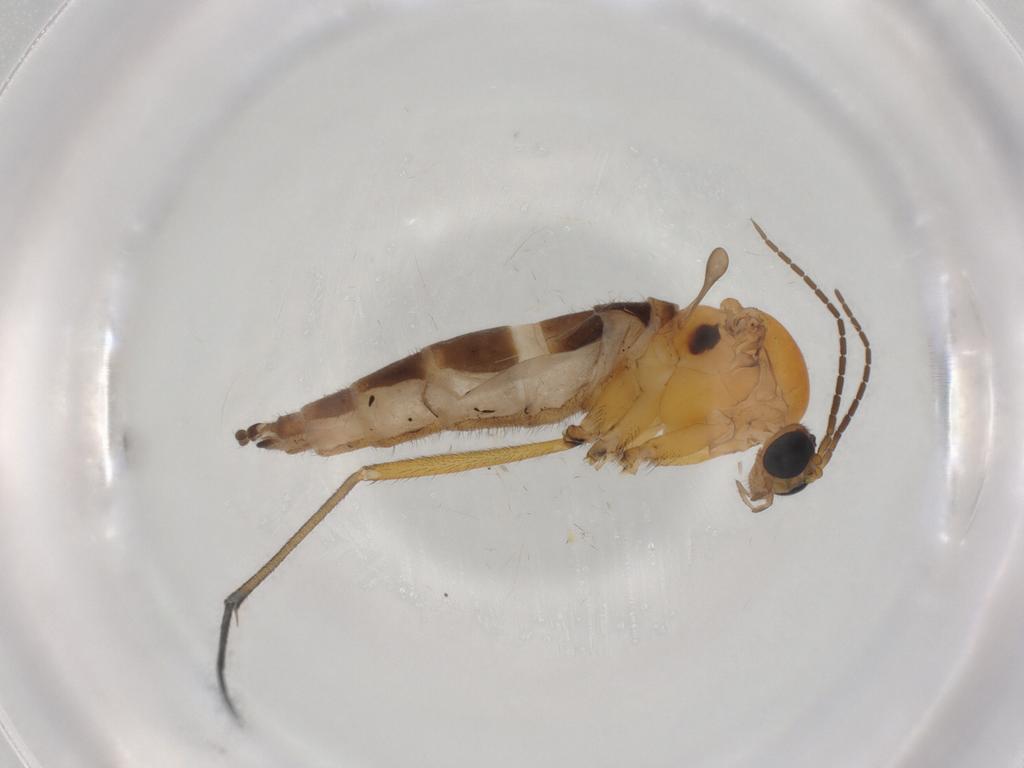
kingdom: Animalia
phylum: Arthropoda
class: Insecta
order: Diptera
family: Sciaridae
